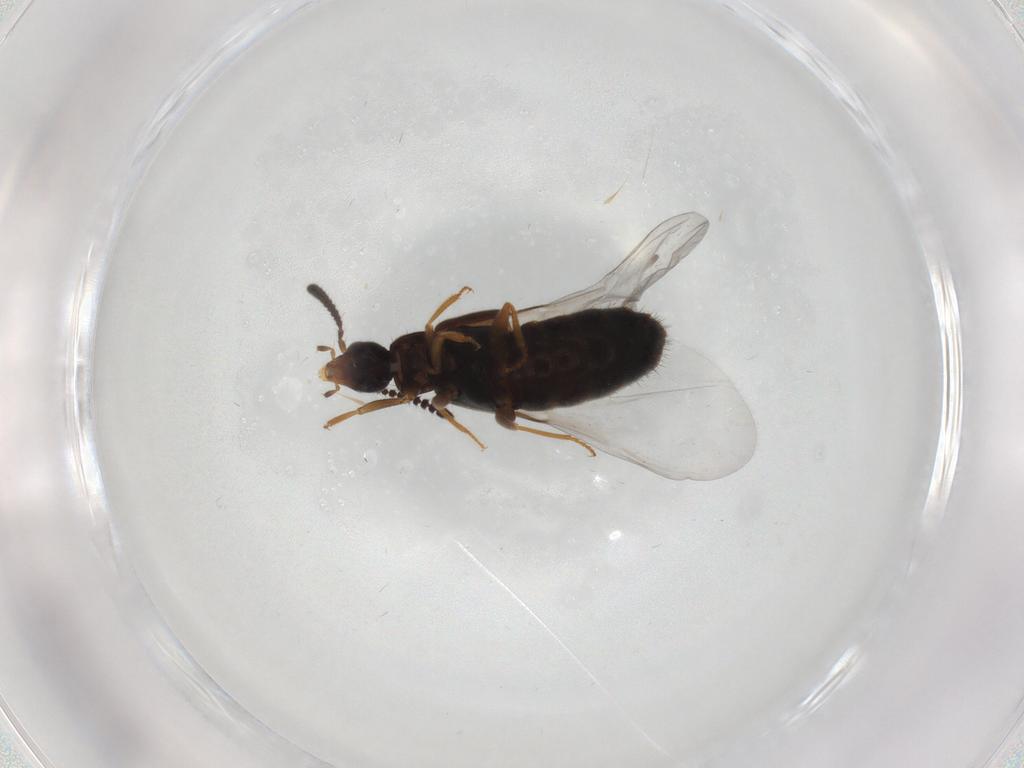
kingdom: Animalia
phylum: Arthropoda
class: Insecta
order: Coleoptera
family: Staphylinidae
